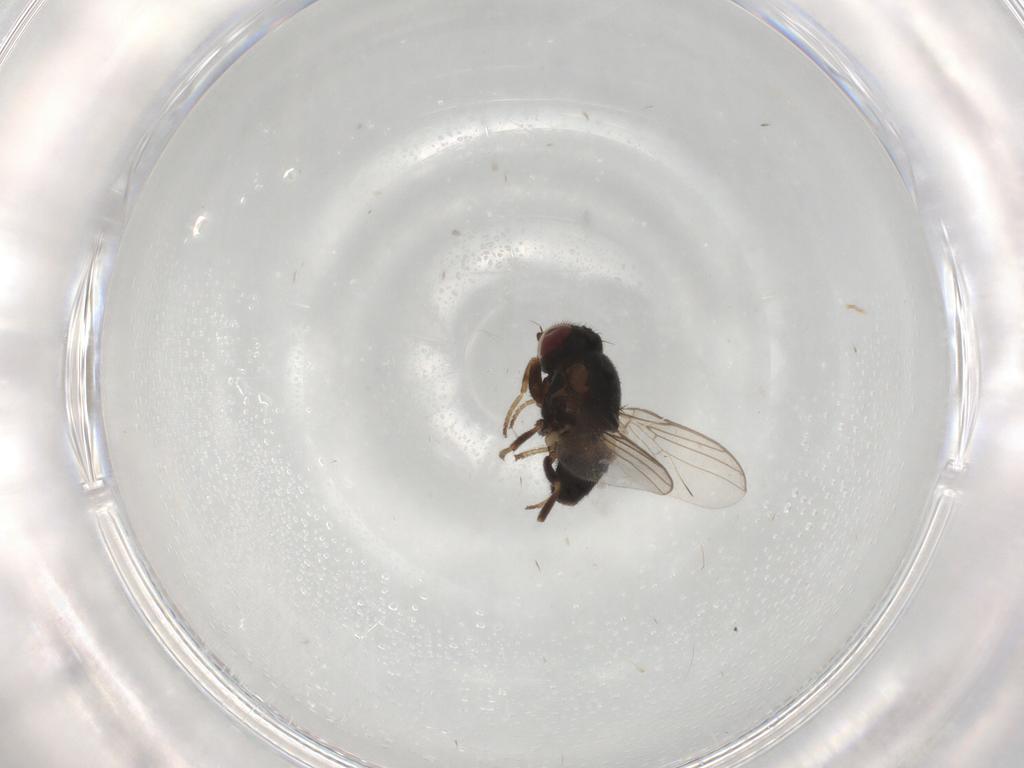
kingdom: Animalia
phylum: Arthropoda
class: Insecta
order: Diptera
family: Chloropidae
